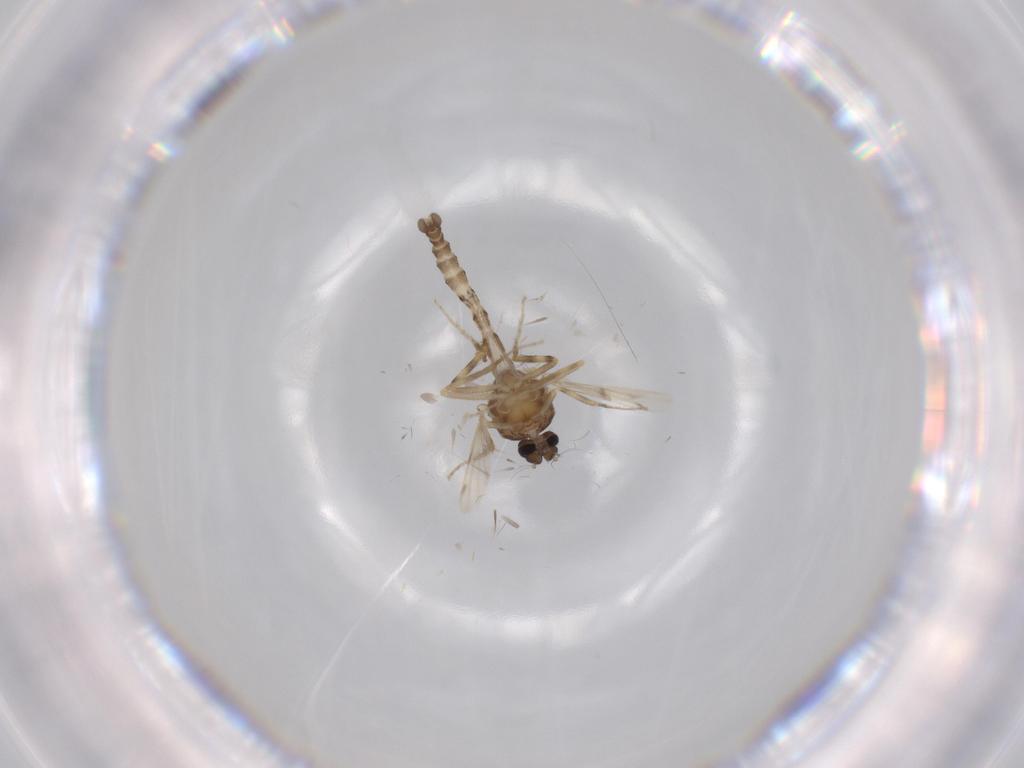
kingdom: Animalia
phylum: Arthropoda
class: Insecta
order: Diptera
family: Ceratopogonidae
